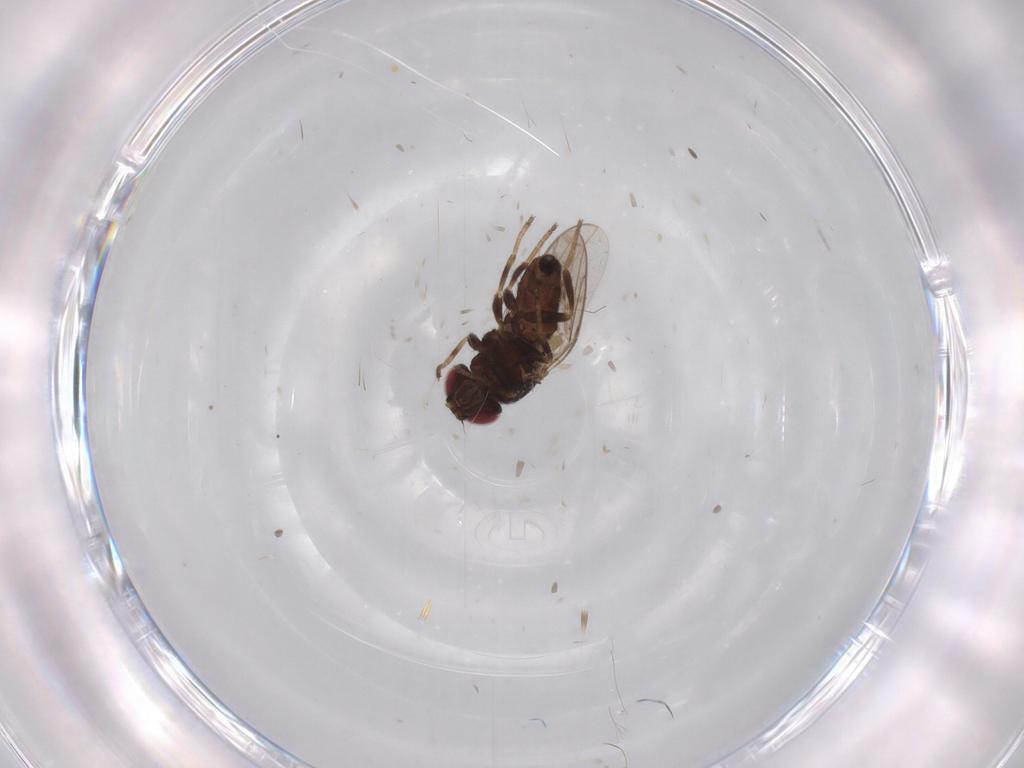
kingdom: Animalia
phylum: Arthropoda
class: Insecta
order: Diptera
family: Chloropidae
